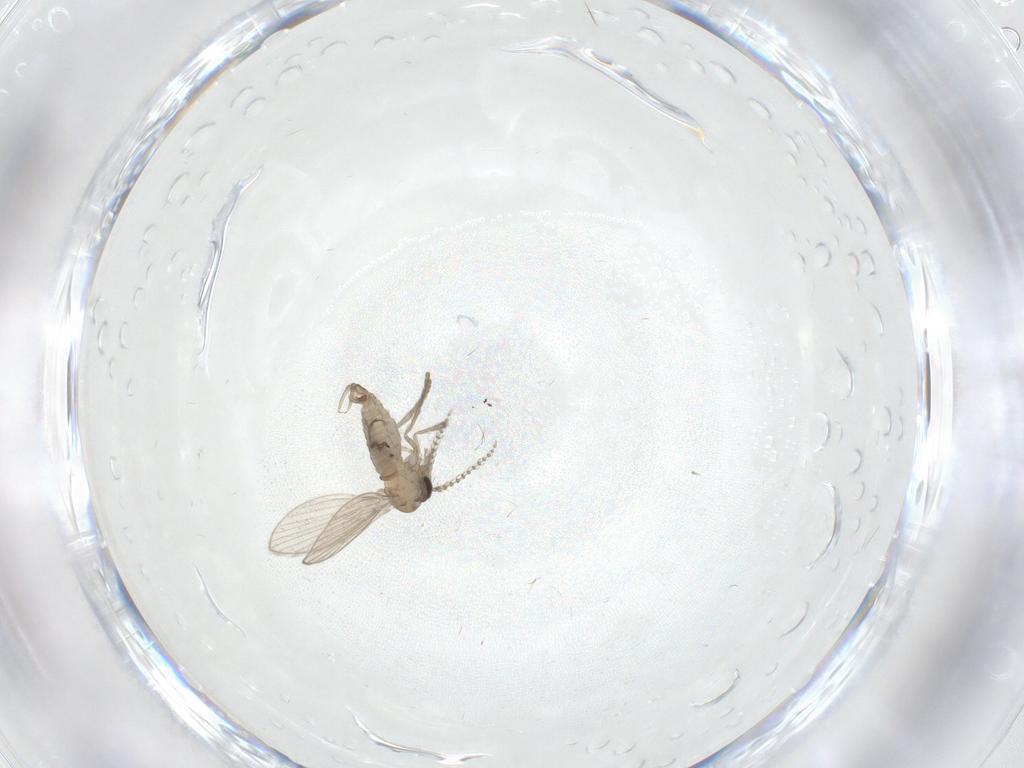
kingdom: Animalia
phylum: Arthropoda
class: Insecta
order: Diptera
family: Psychodidae
